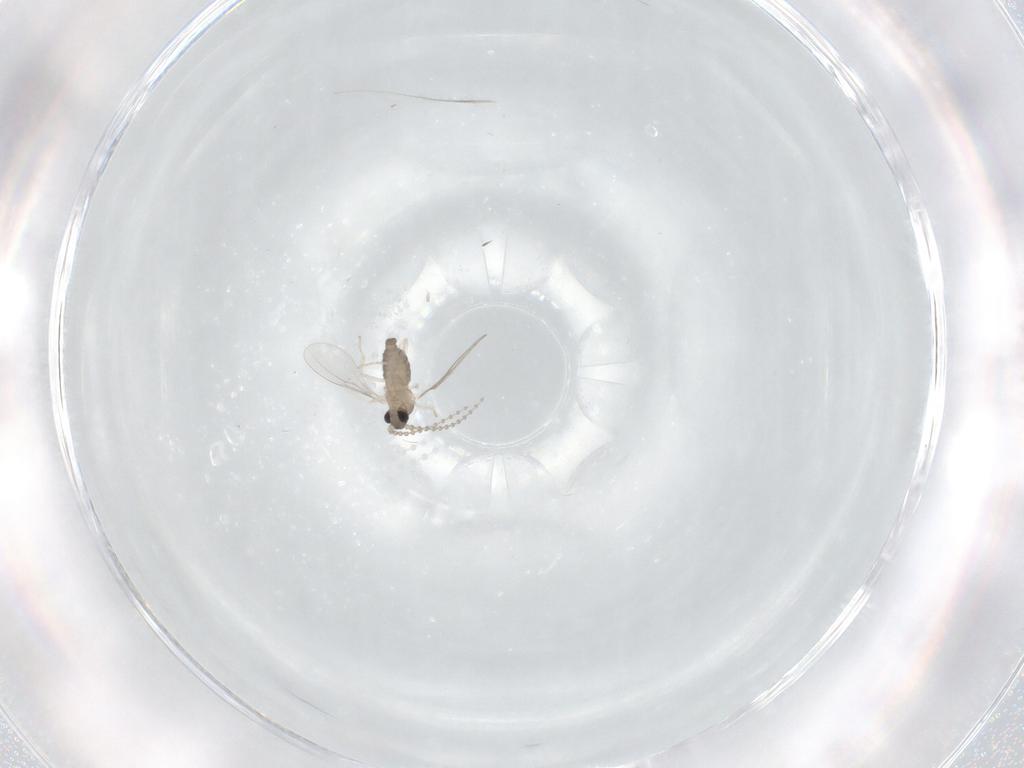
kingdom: Animalia
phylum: Arthropoda
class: Insecta
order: Diptera
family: Cecidomyiidae
